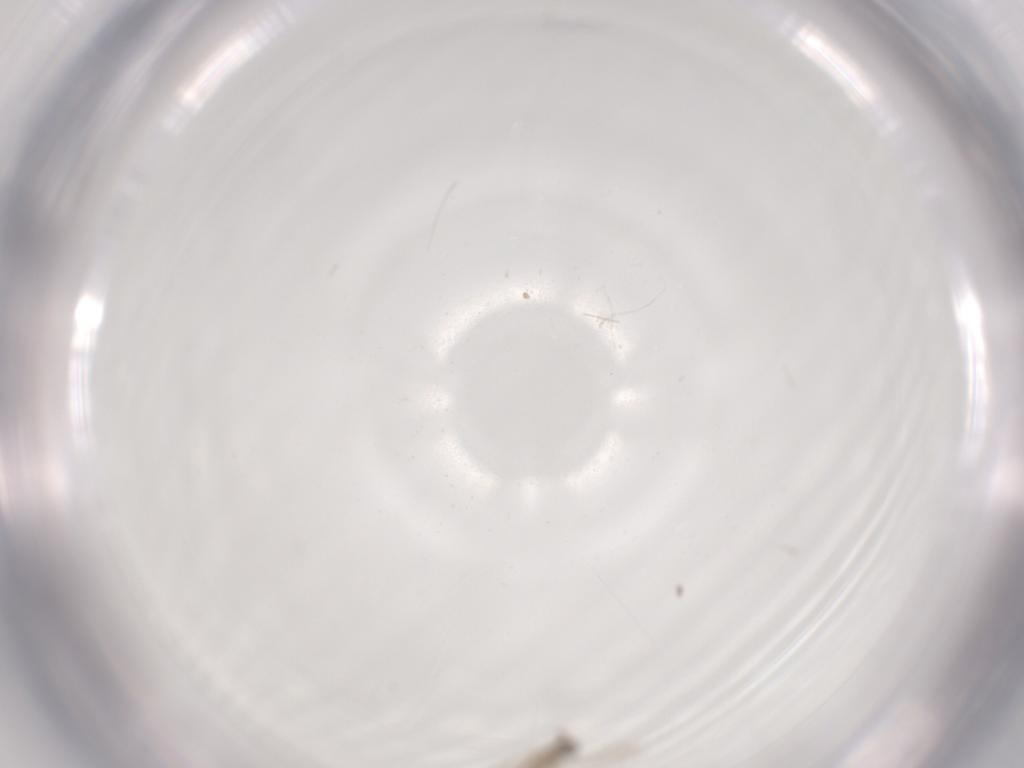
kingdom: Animalia
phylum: Arthropoda
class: Insecta
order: Diptera
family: Cecidomyiidae
